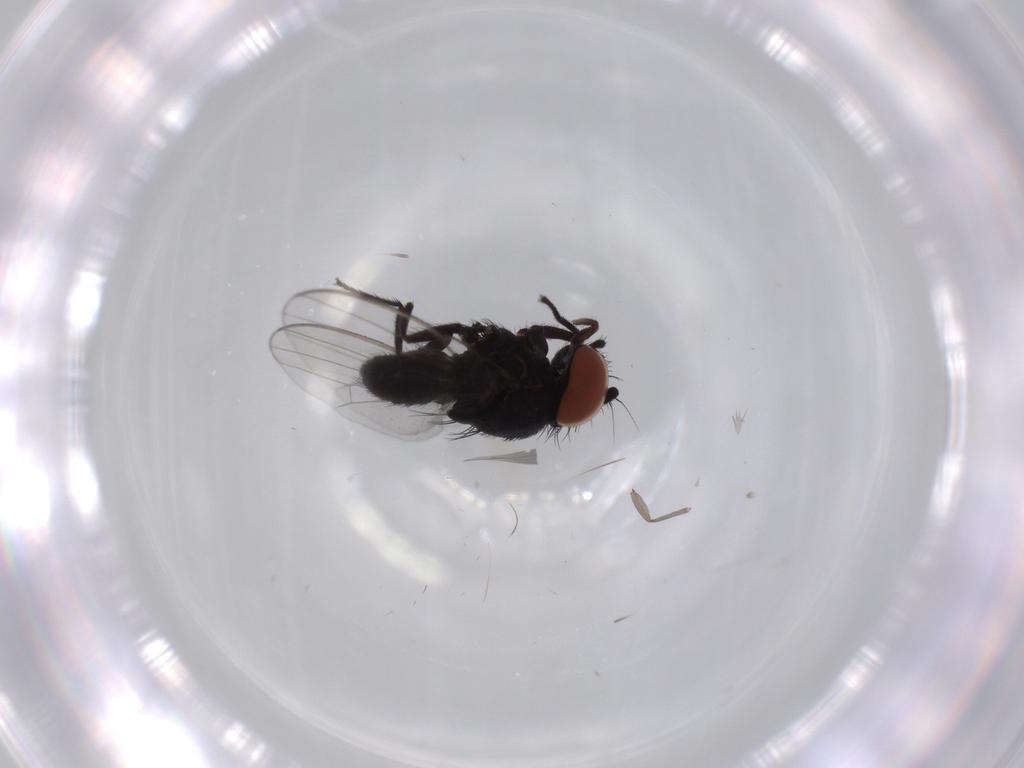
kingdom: Animalia
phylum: Arthropoda
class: Insecta
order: Diptera
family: Milichiidae
